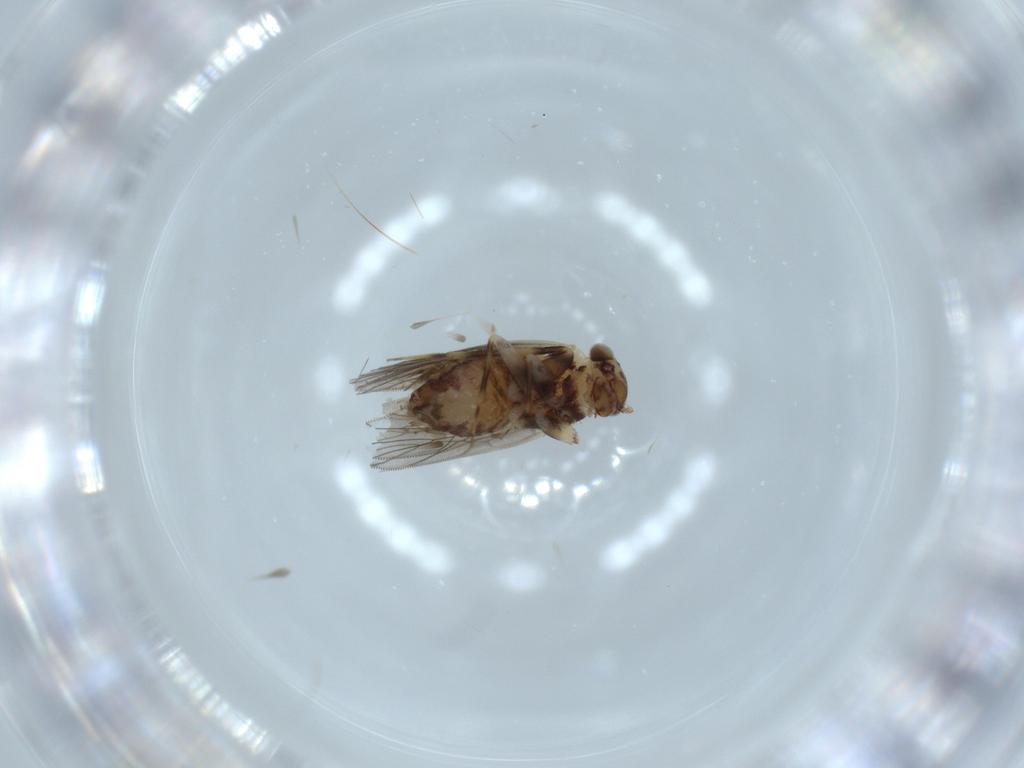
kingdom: Animalia
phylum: Arthropoda
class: Insecta
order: Psocodea
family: Lepidopsocidae
